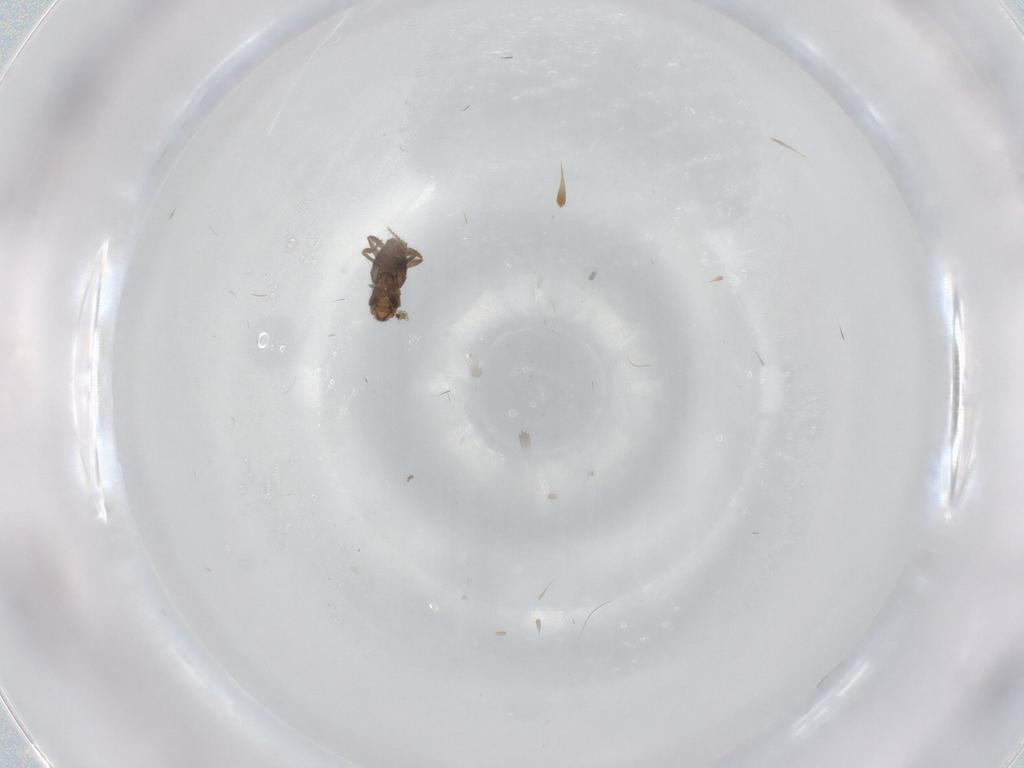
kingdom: Animalia
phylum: Arthropoda
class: Insecta
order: Diptera
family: Phoridae
